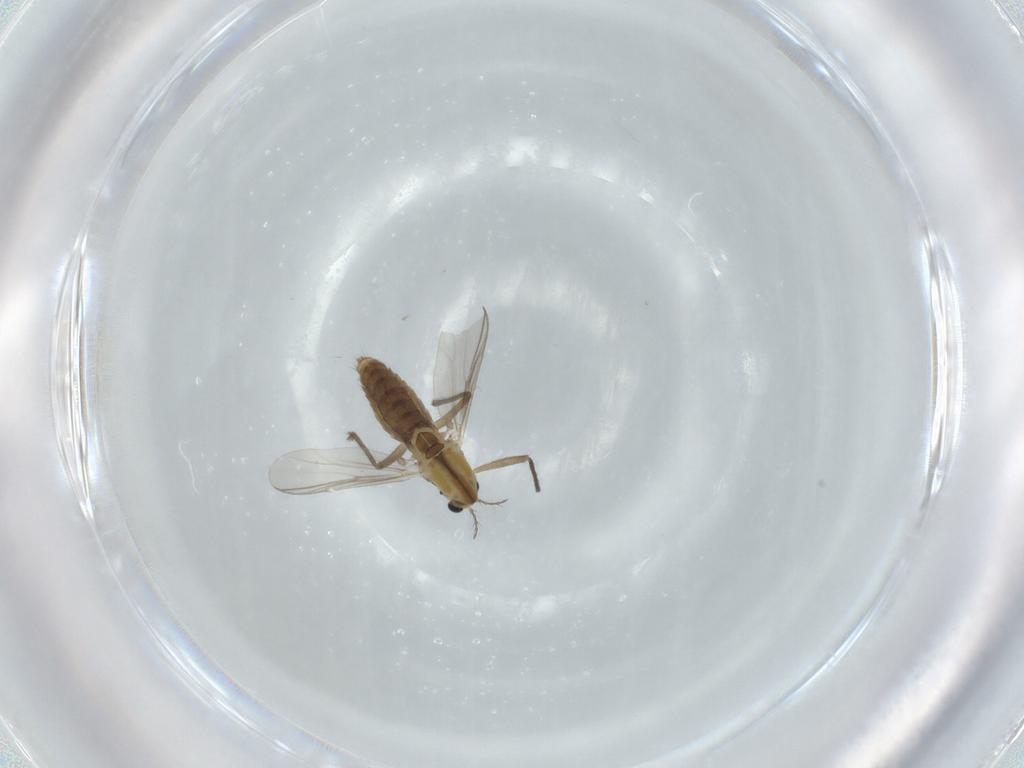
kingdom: Animalia
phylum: Arthropoda
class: Insecta
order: Diptera
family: Chironomidae
